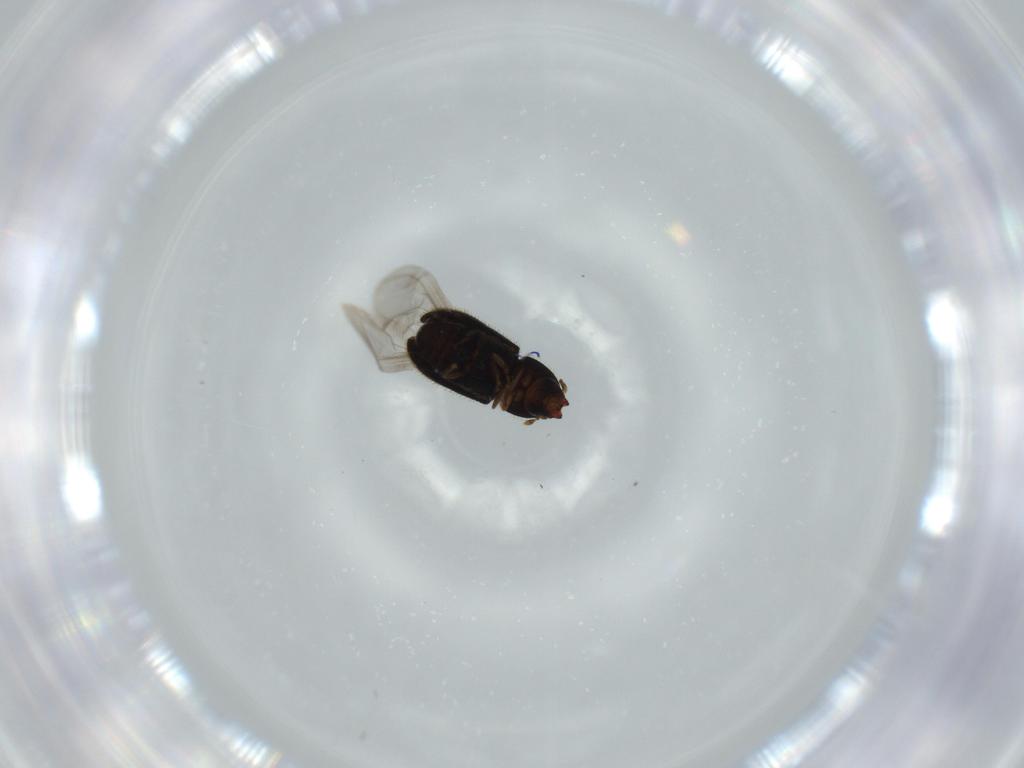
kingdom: Animalia
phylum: Arthropoda
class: Insecta
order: Coleoptera
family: Curculionidae
